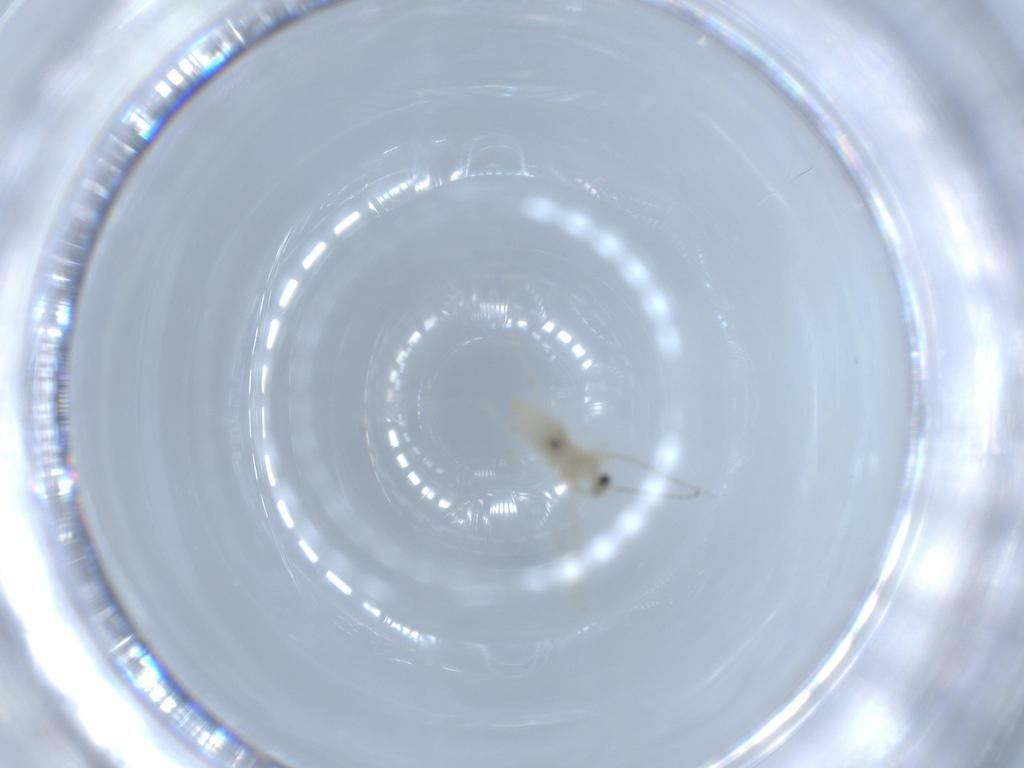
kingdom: Animalia
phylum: Arthropoda
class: Insecta
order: Diptera
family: Cecidomyiidae
